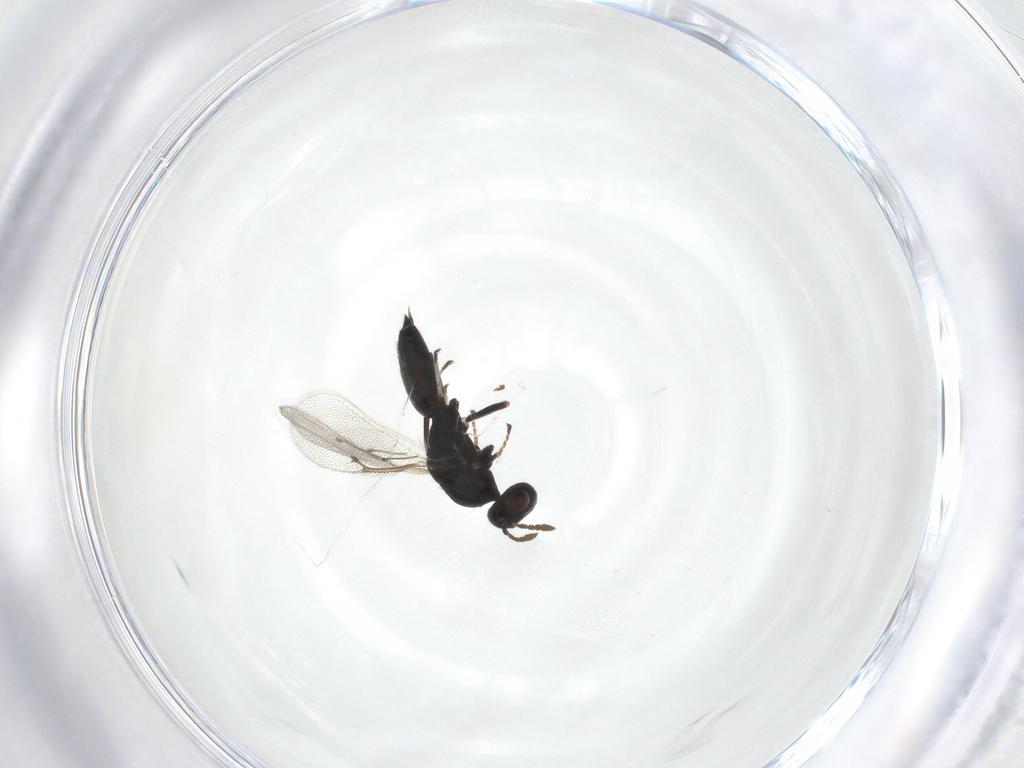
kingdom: Animalia
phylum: Arthropoda
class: Insecta
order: Hymenoptera
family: Eulophidae
